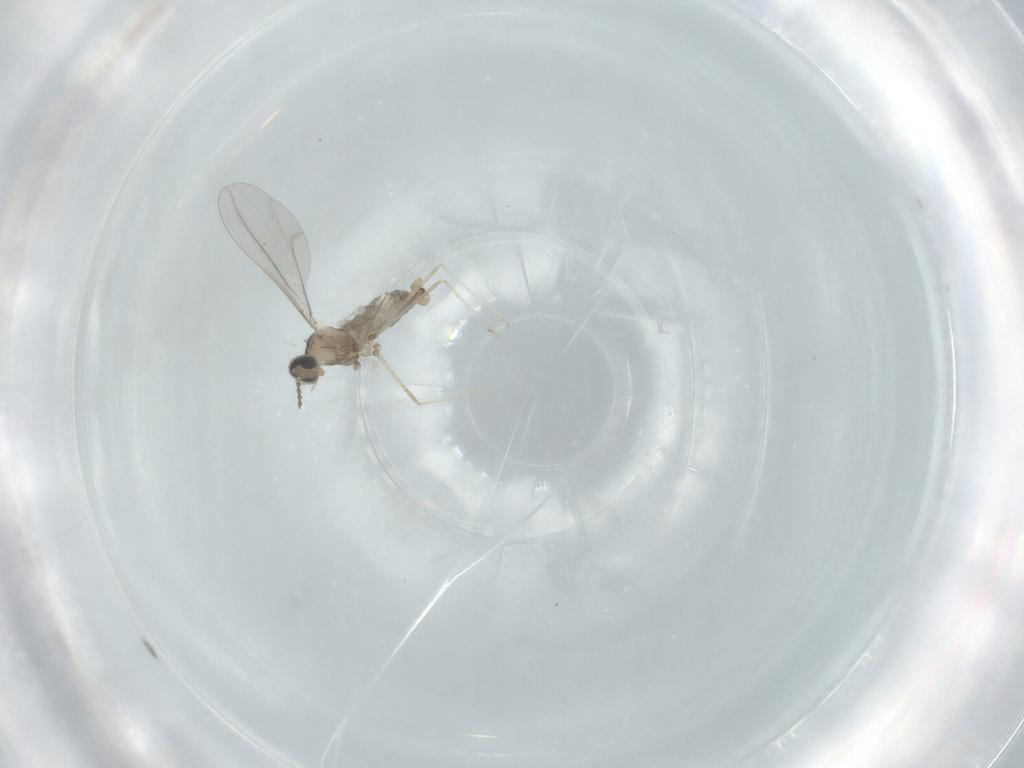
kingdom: Animalia
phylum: Arthropoda
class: Insecta
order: Diptera
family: Cecidomyiidae
